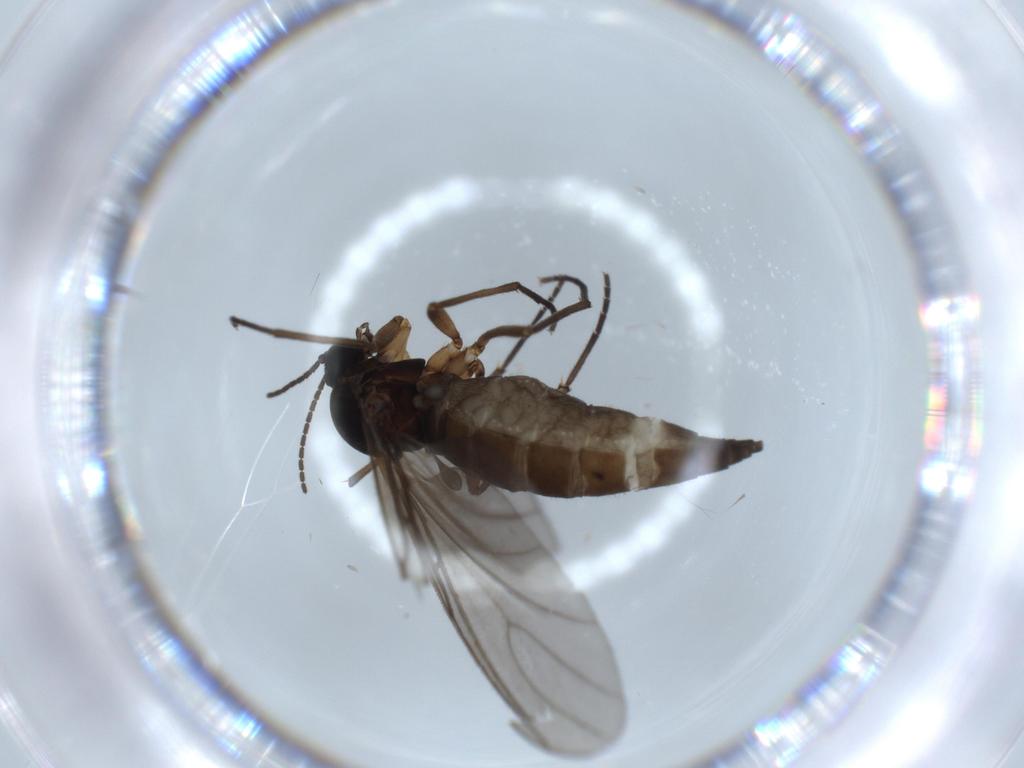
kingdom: Animalia
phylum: Arthropoda
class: Insecta
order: Diptera
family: Sciaridae
